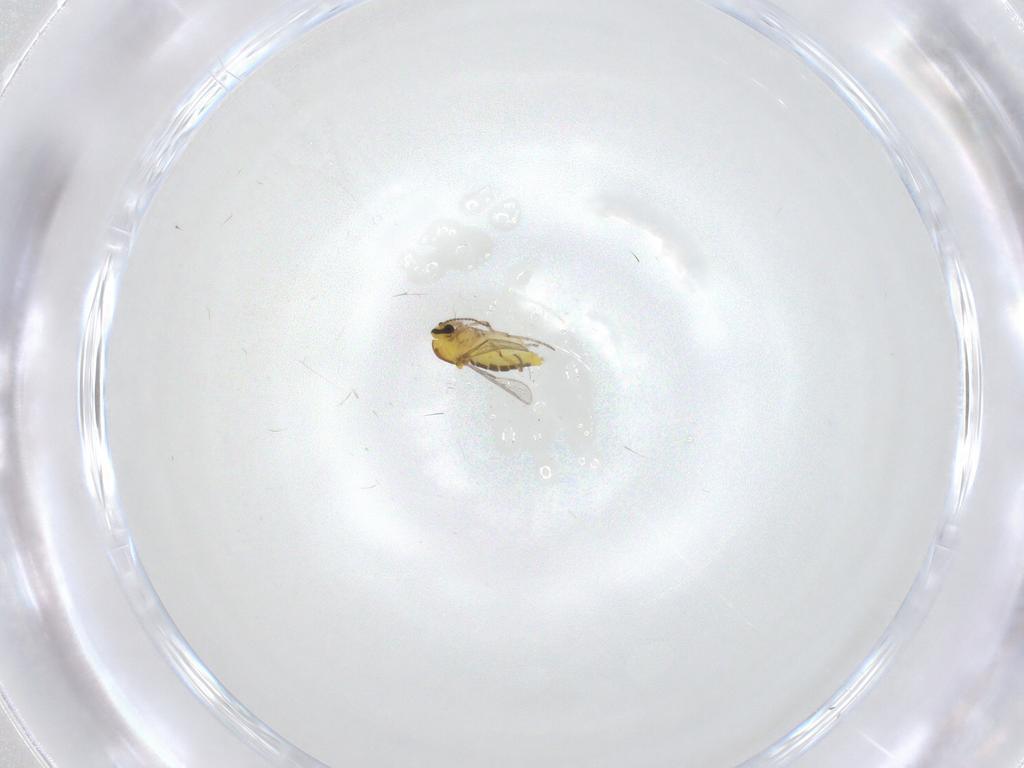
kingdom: Animalia
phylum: Arthropoda
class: Insecta
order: Diptera
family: Ceratopogonidae
